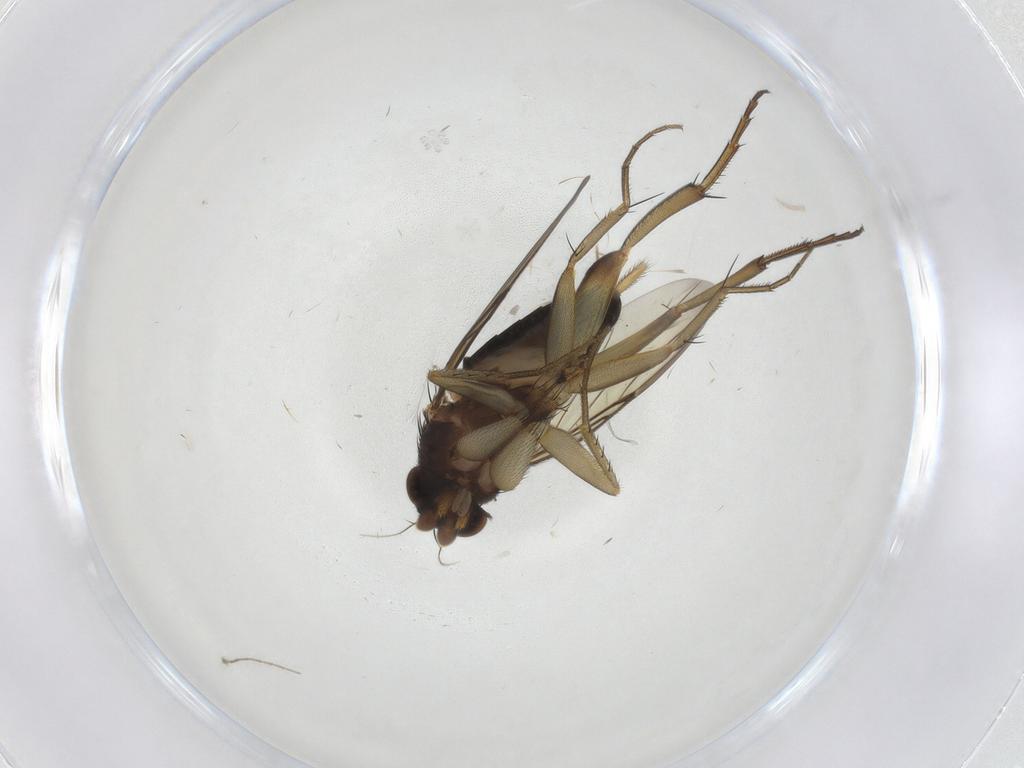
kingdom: Animalia
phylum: Arthropoda
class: Insecta
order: Diptera
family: Phoridae
